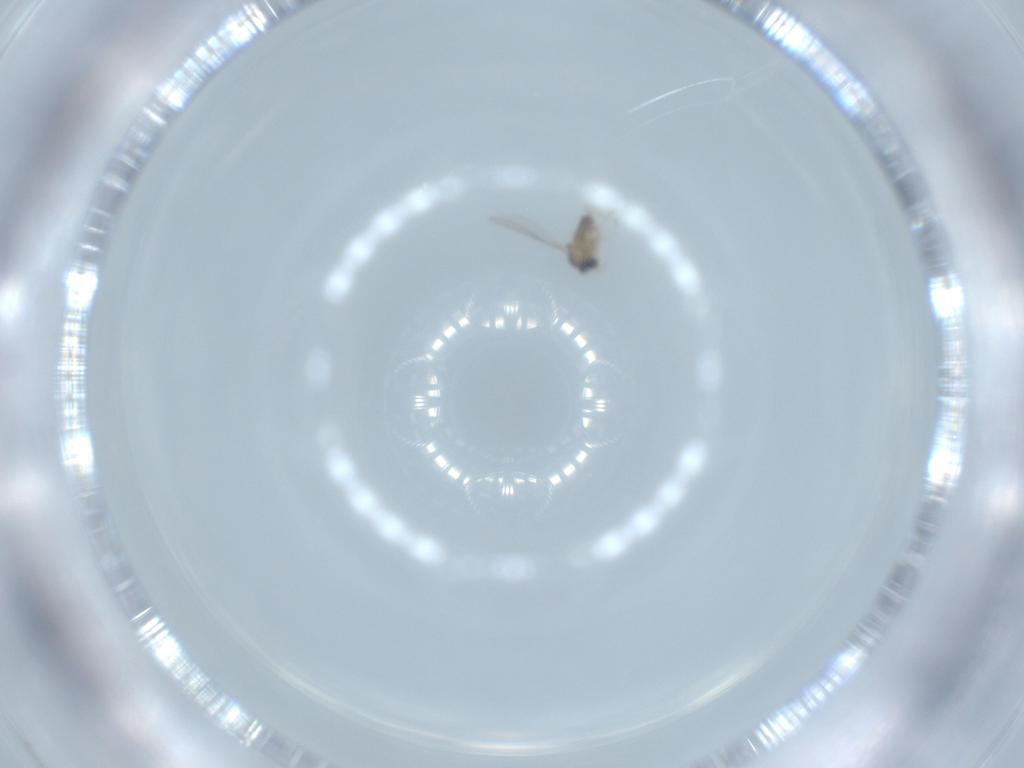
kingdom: Animalia
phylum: Arthropoda
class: Insecta
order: Diptera
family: Cecidomyiidae
